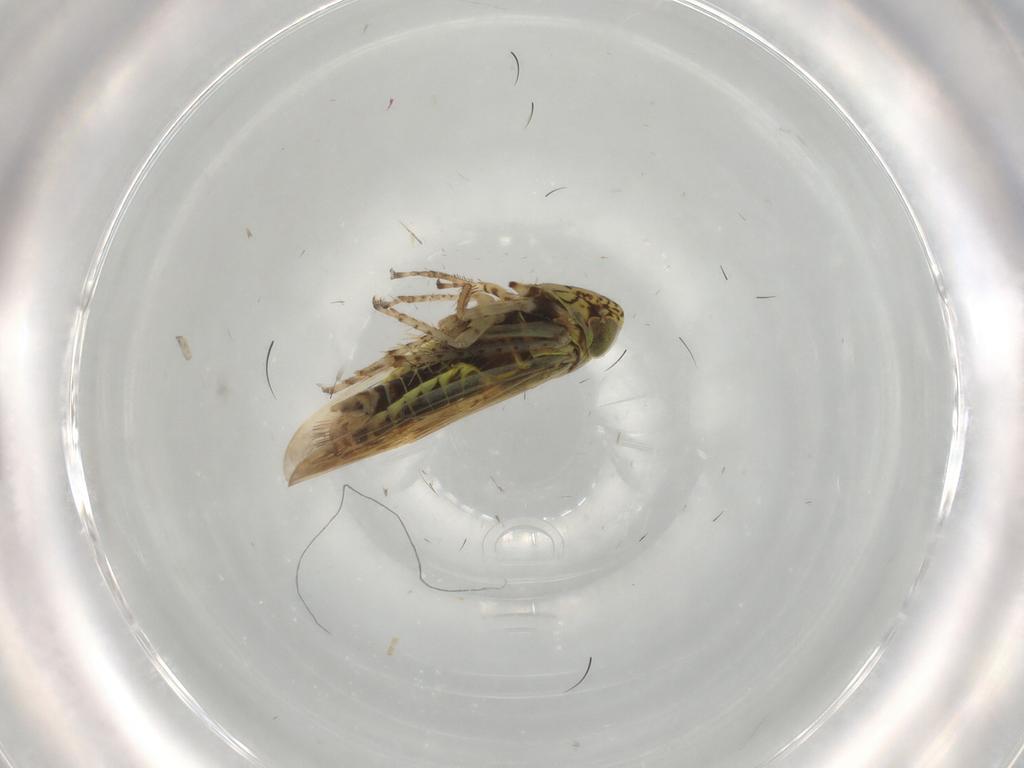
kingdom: Animalia
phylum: Arthropoda
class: Insecta
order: Hemiptera
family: Cicadellidae
